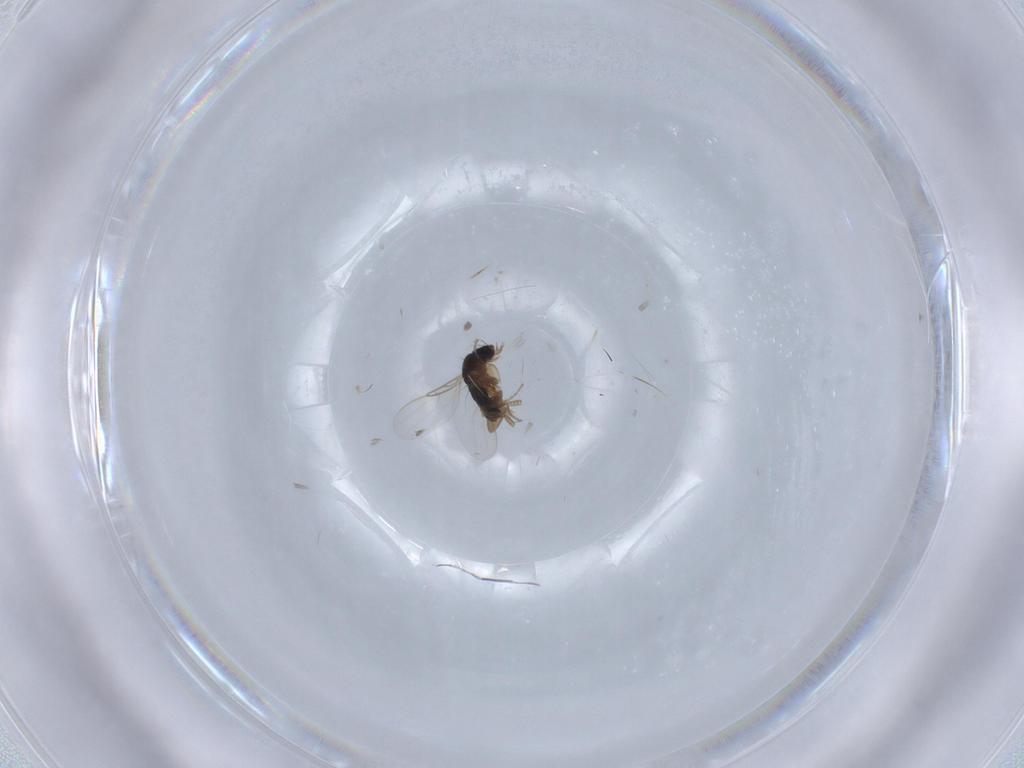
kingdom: Animalia
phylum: Arthropoda
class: Insecta
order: Diptera
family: Phoridae
